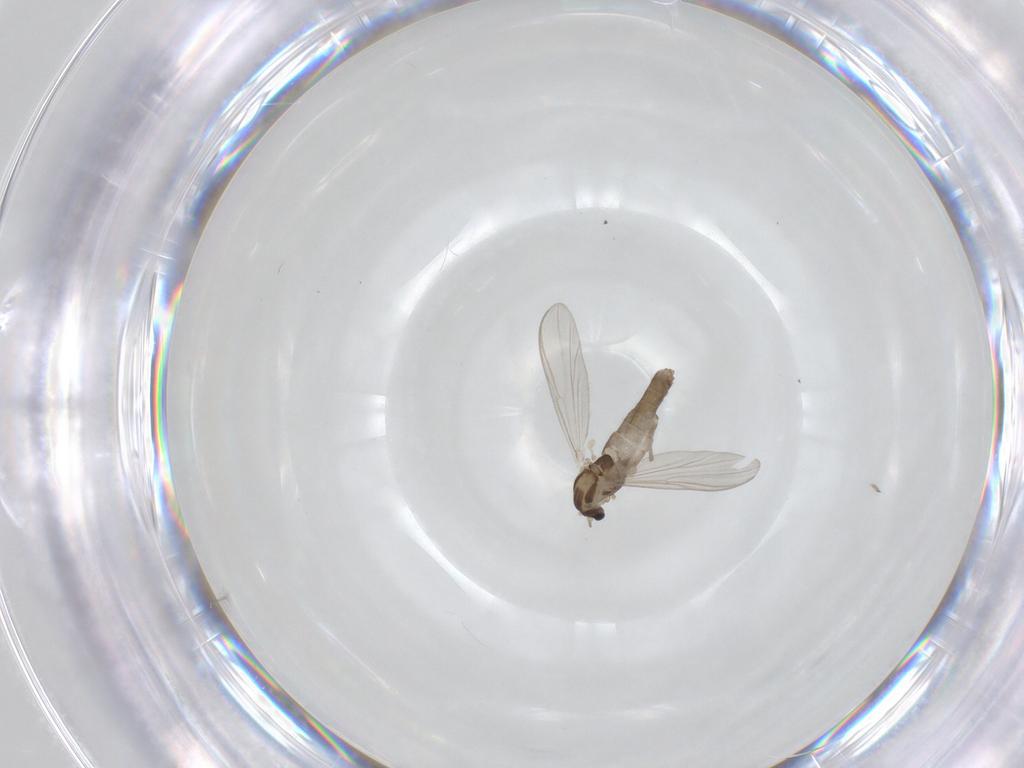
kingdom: Animalia
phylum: Arthropoda
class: Insecta
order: Diptera
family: Chironomidae
